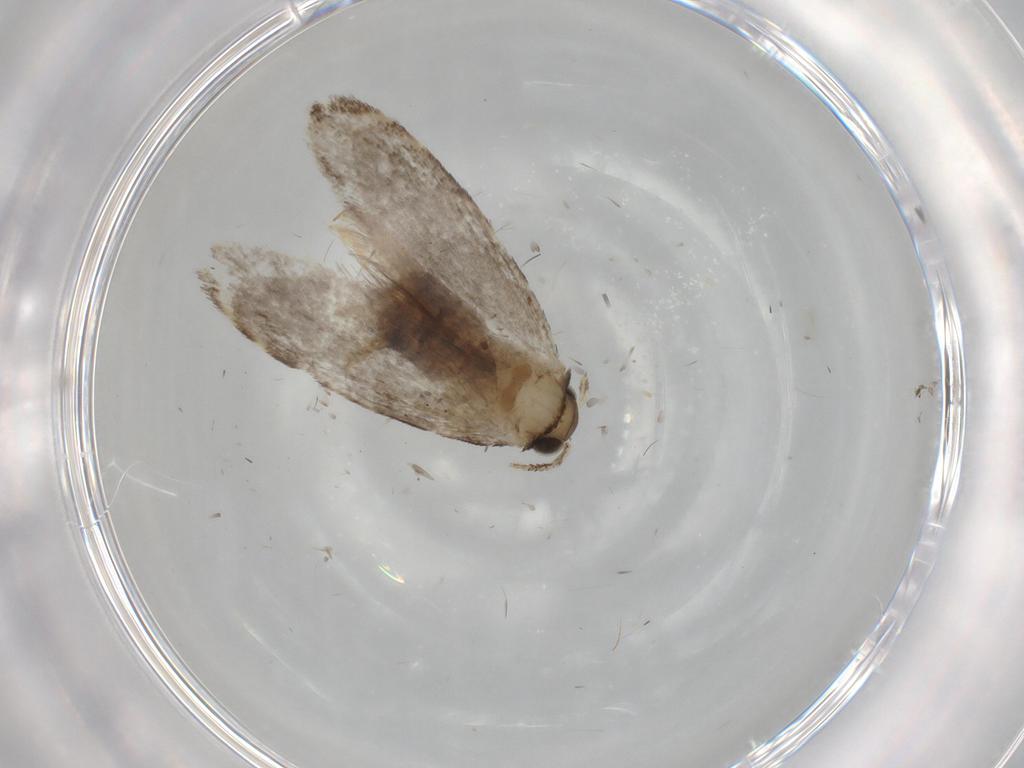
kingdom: Animalia
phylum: Arthropoda
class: Insecta
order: Lepidoptera
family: Tineidae
